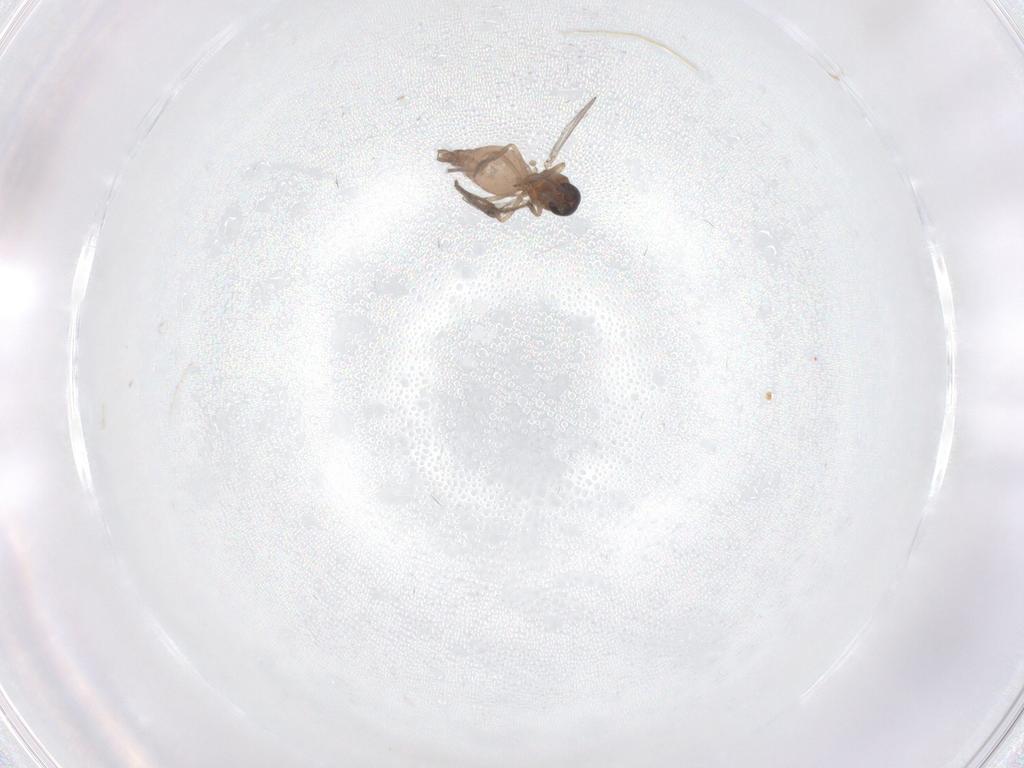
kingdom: Animalia
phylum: Arthropoda
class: Insecta
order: Diptera
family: Ceratopogonidae
